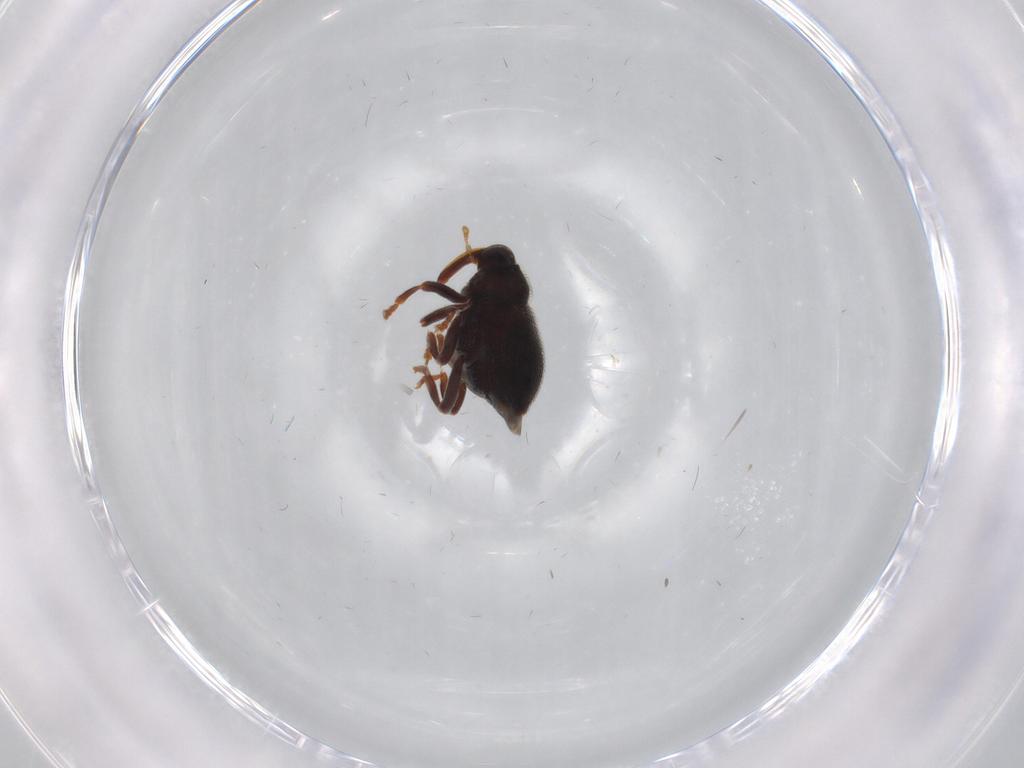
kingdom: Animalia
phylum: Arthropoda
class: Insecta
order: Coleoptera
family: Curculionidae
